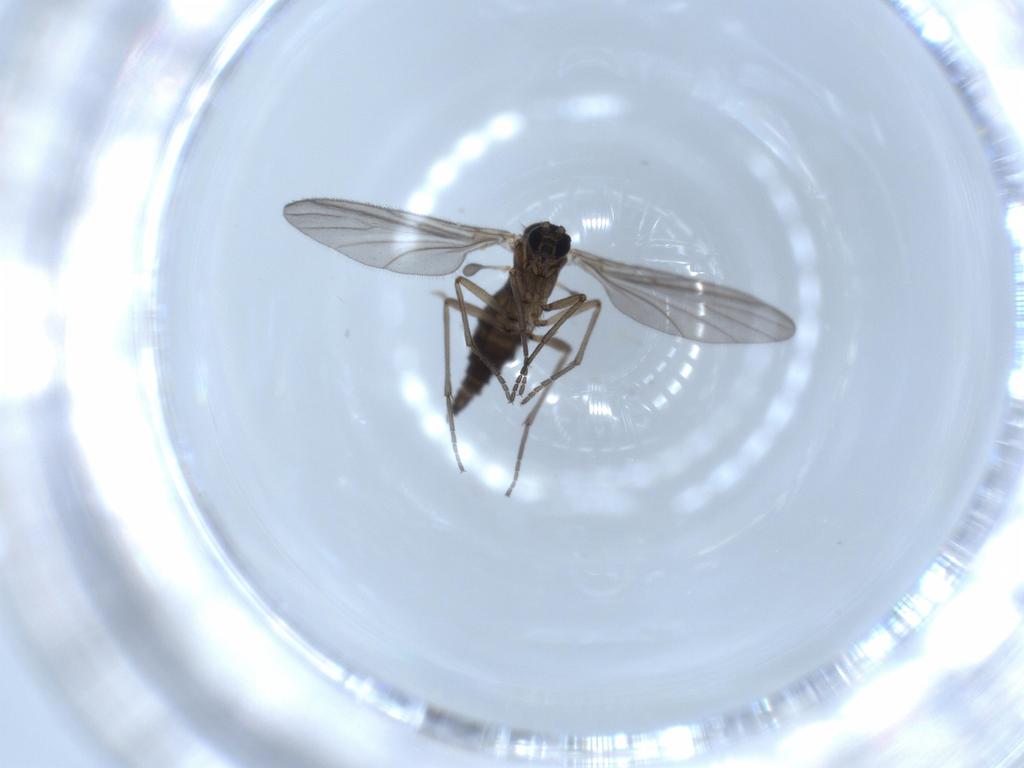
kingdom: Animalia
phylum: Arthropoda
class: Insecta
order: Diptera
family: Sciaridae
